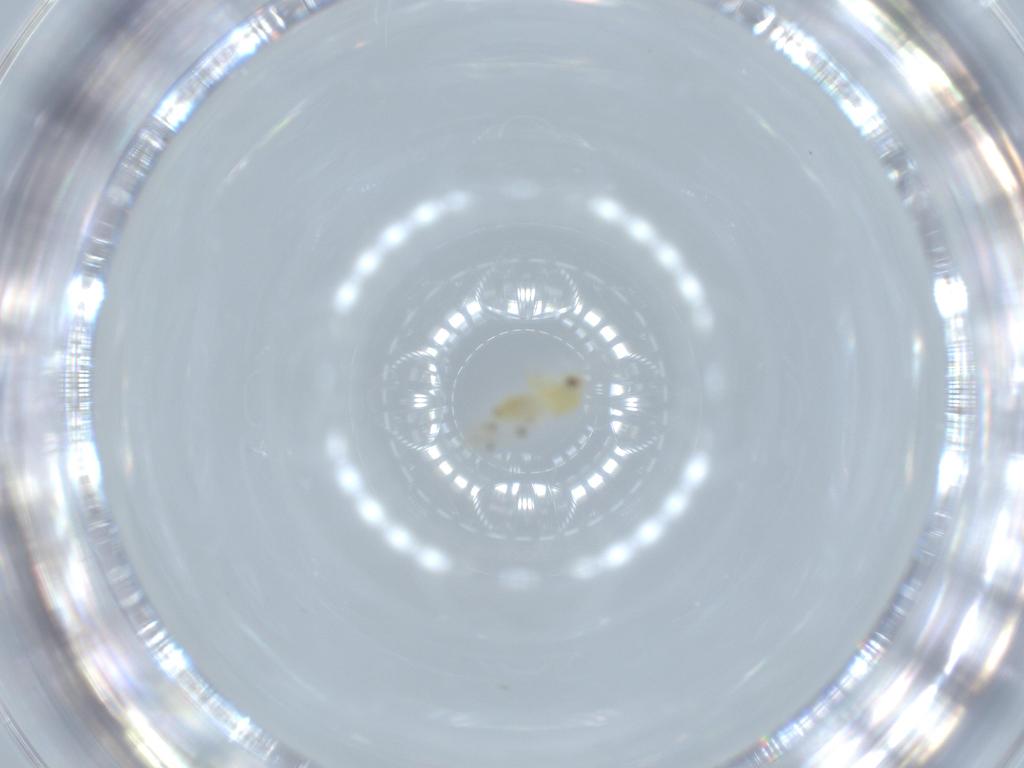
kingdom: Animalia
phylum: Arthropoda
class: Insecta
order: Hemiptera
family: Aleyrodidae
